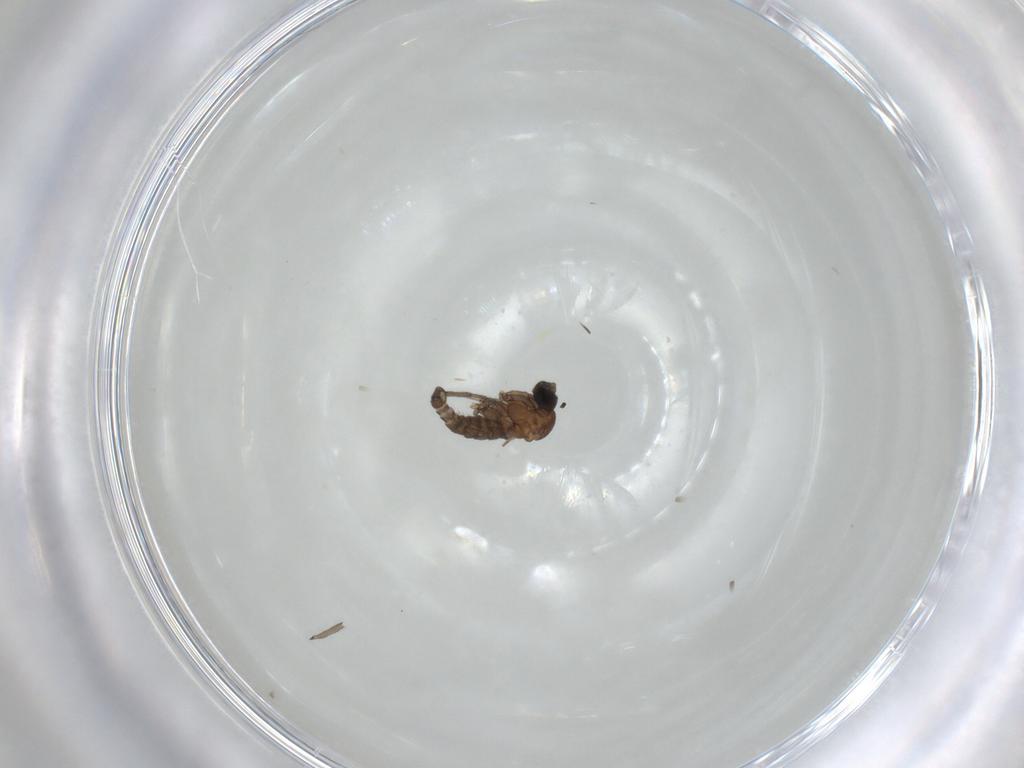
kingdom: Animalia
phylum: Arthropoda
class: Insecta
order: Diptera
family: Sciaridae
